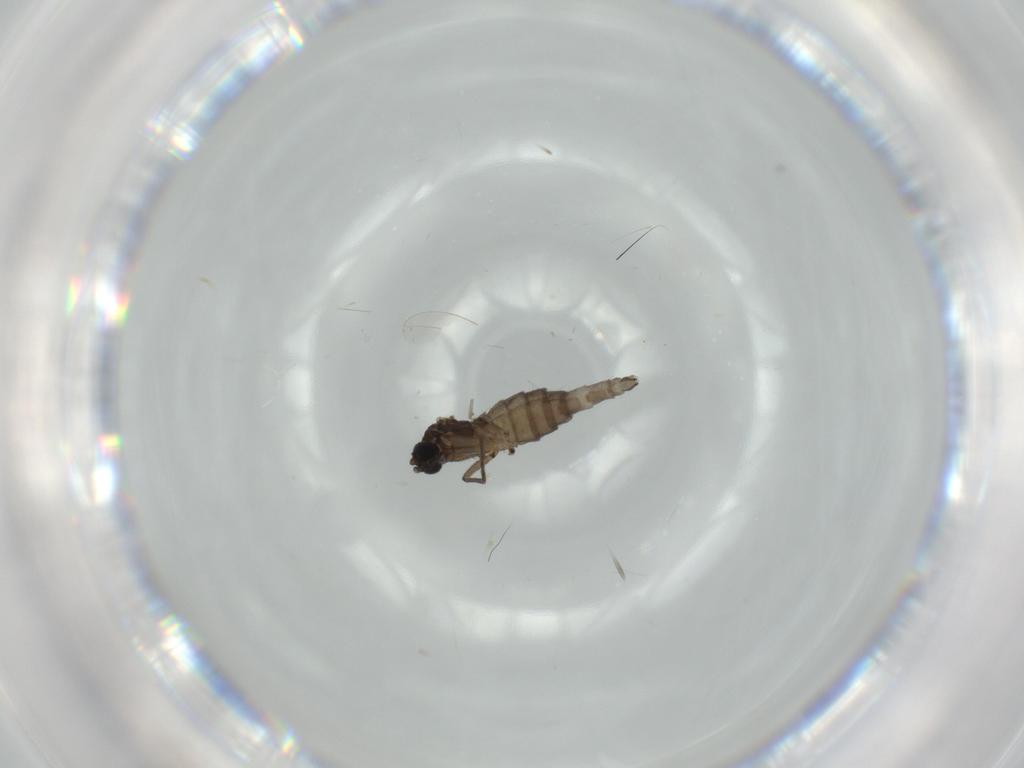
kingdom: Animalia
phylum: Arthropoda
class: Insecta
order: Diptera
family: Sciaridae
